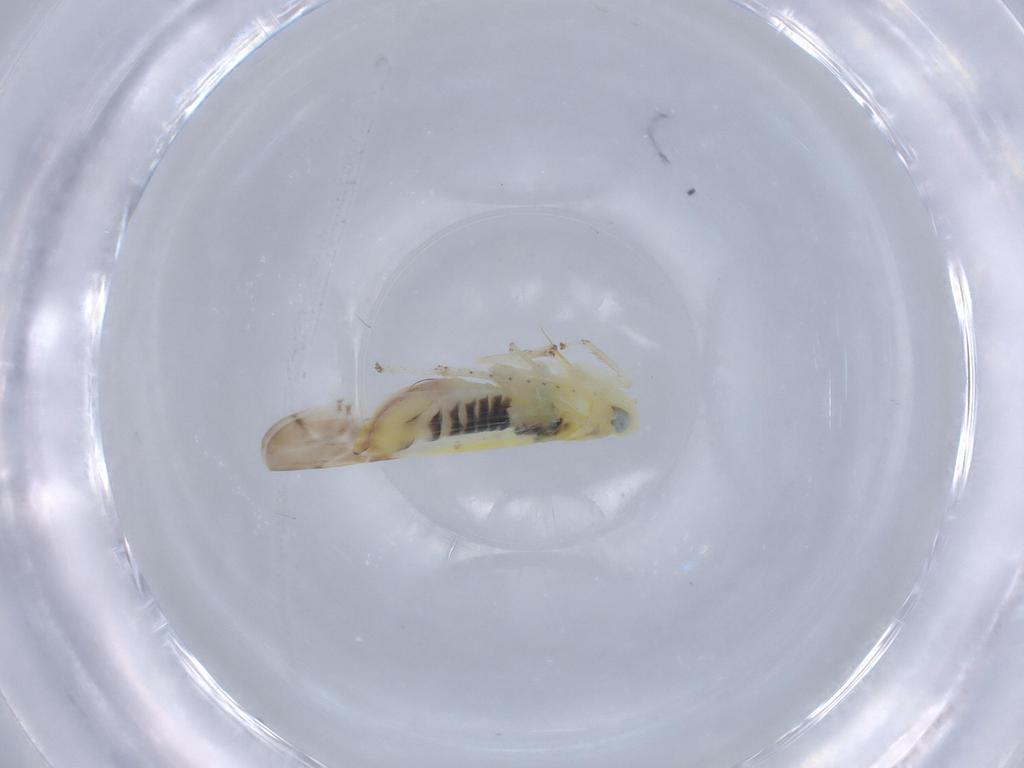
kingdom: Animalia
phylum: Arthropoda
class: Insecta
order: Hemiptera
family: Cicadellidae
